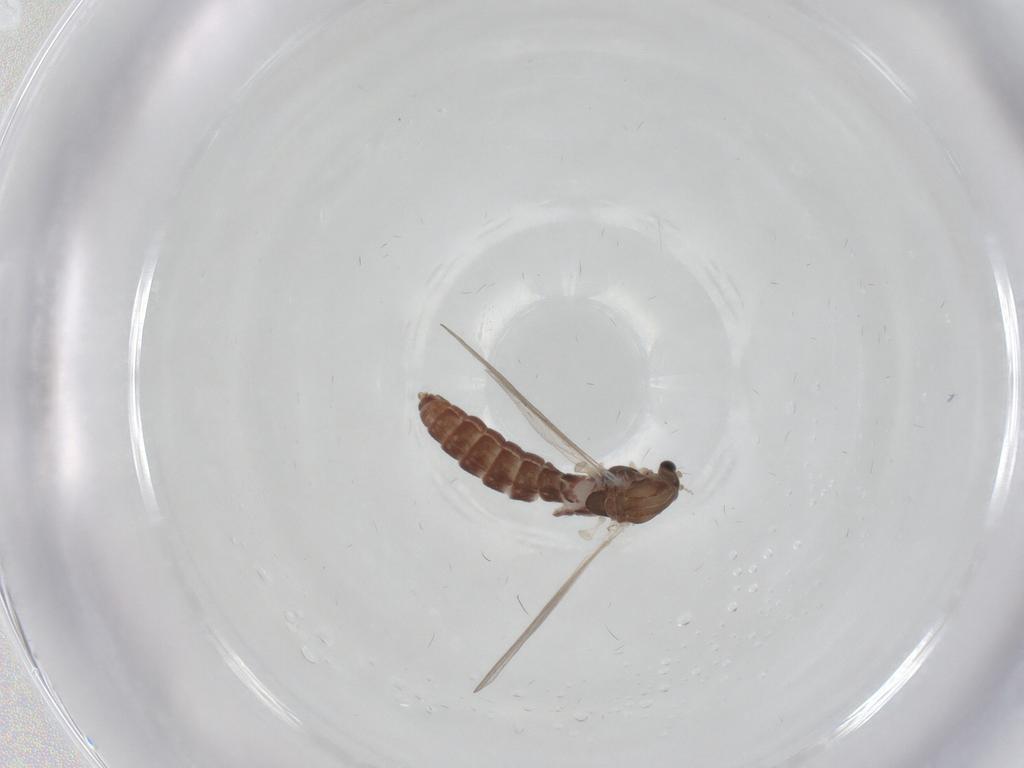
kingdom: Animalia
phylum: Arthropoda
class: Insecta
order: Diptera
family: Chironomidae
